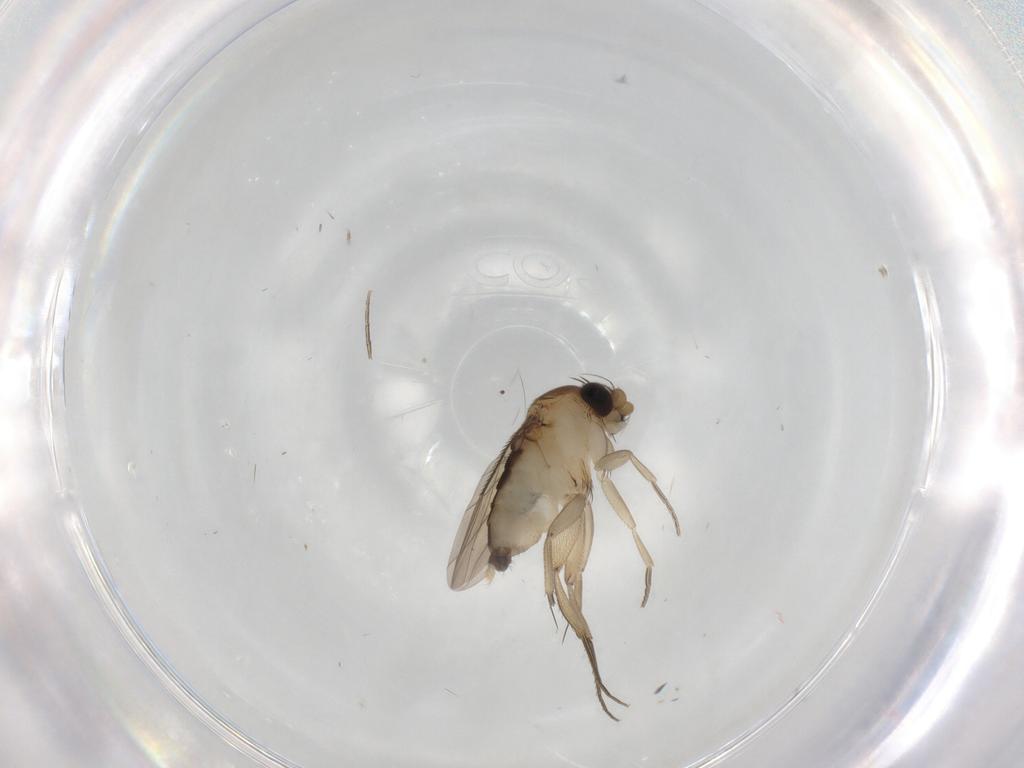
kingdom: Animalia
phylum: Arthropoda
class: Insecta
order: Diptera
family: Phoridae
